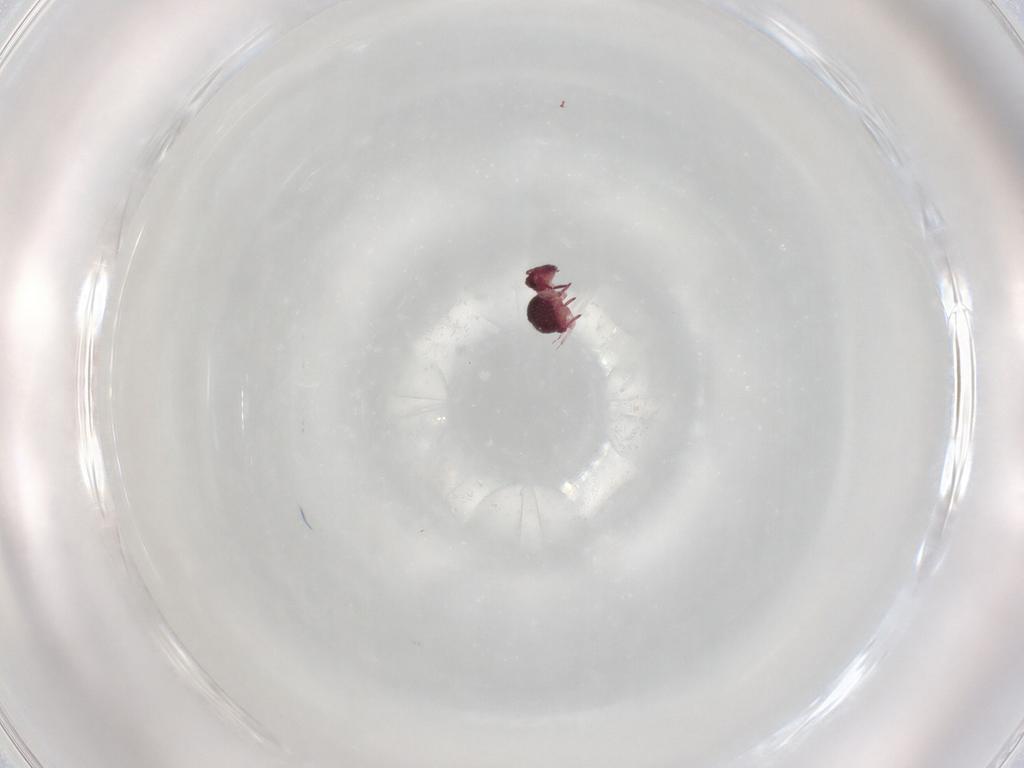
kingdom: Animalia
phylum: Arthropoda
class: Collembola
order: Symphypleona
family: Sminthurididae
